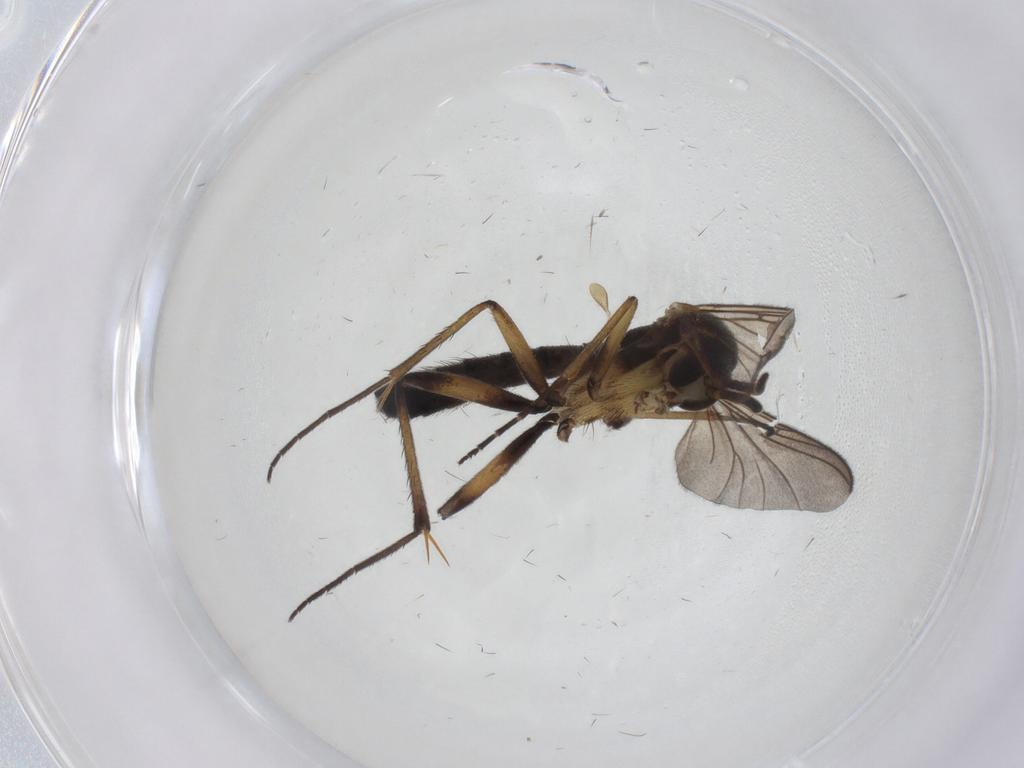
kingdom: Animalia
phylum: Arthropoda
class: Insecta
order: Diptera
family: Mycetophilidae
